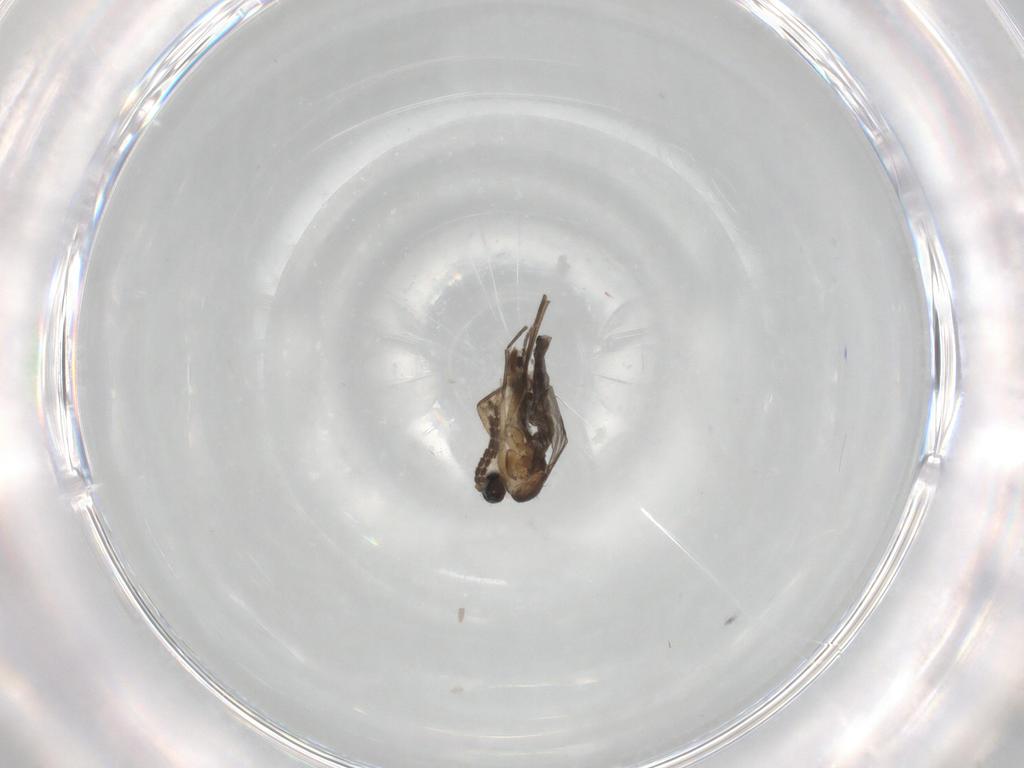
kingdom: Animalia
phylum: Arthropoda
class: Insecta
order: Diptera
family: Sciaridae
